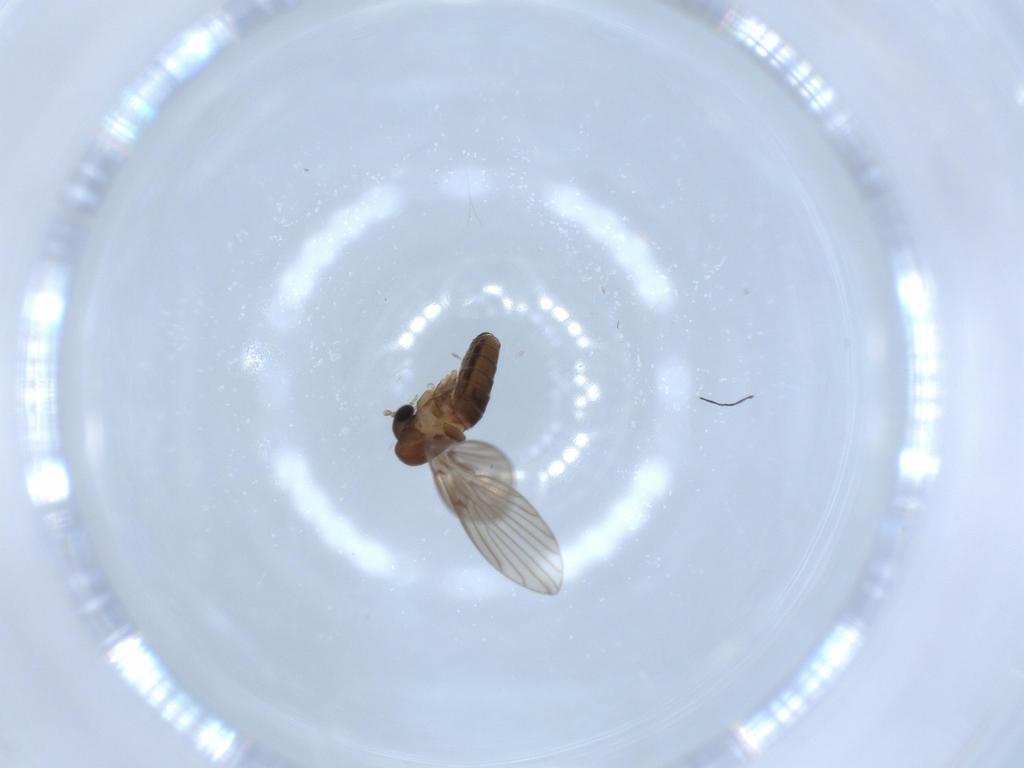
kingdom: Animalia
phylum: Arthropoda
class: Insecta
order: Diptera
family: Psychodidae
